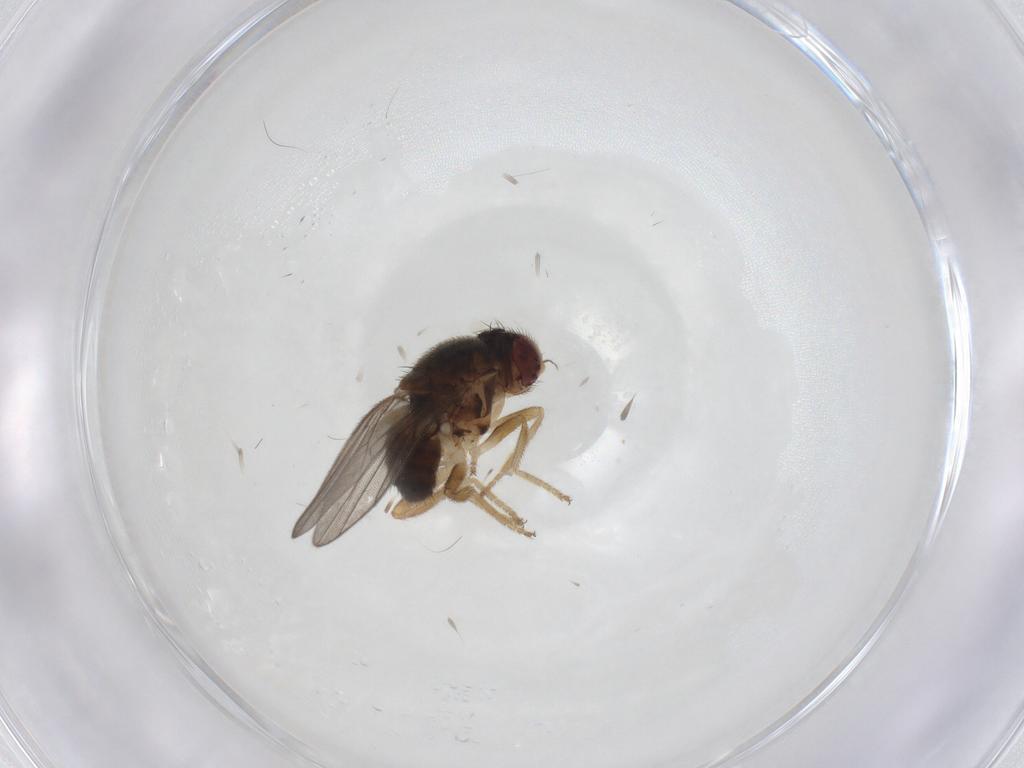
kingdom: Animalia
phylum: Arthropoda
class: Insecta
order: Diptera
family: Chloropidae
